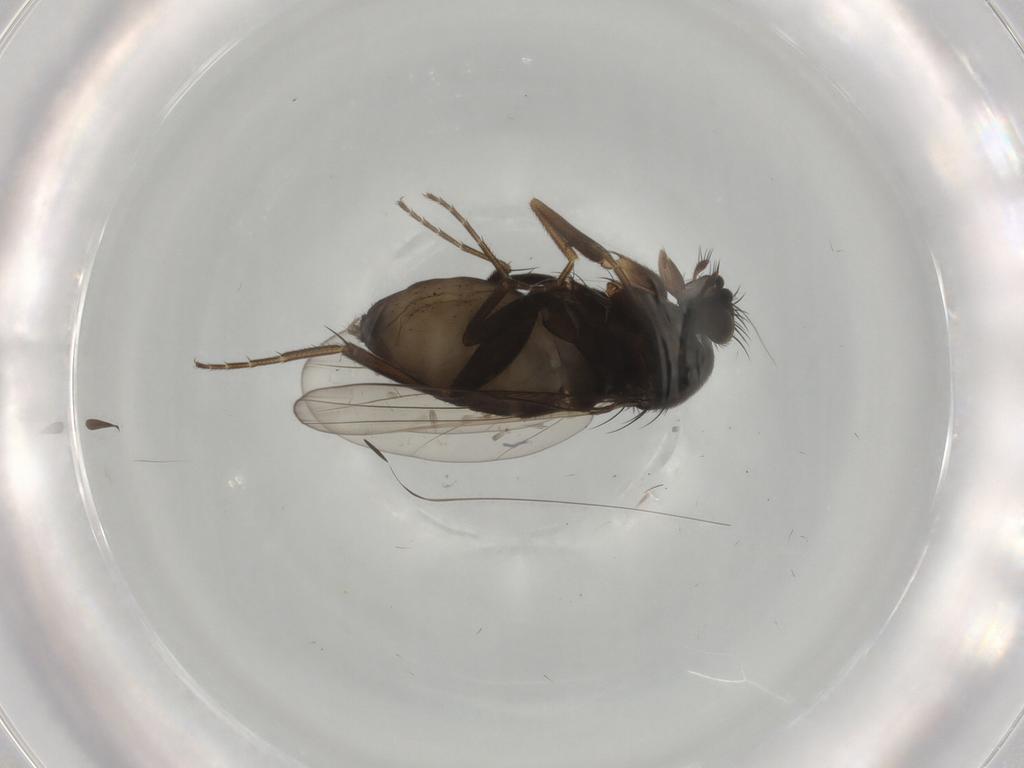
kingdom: Animalia
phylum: Arthropoda
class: Insecta
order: Diptera
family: Phoridae
